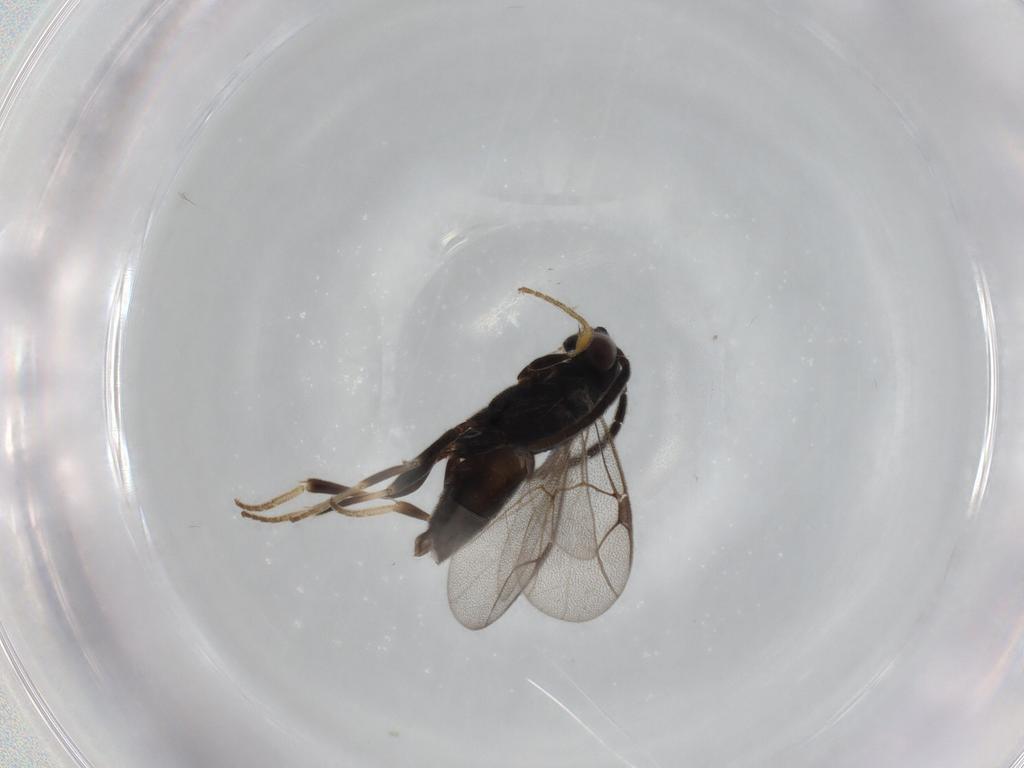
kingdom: Animalia
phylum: Arthropoda
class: Insecta
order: Hymenoptera
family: Dryinidae
